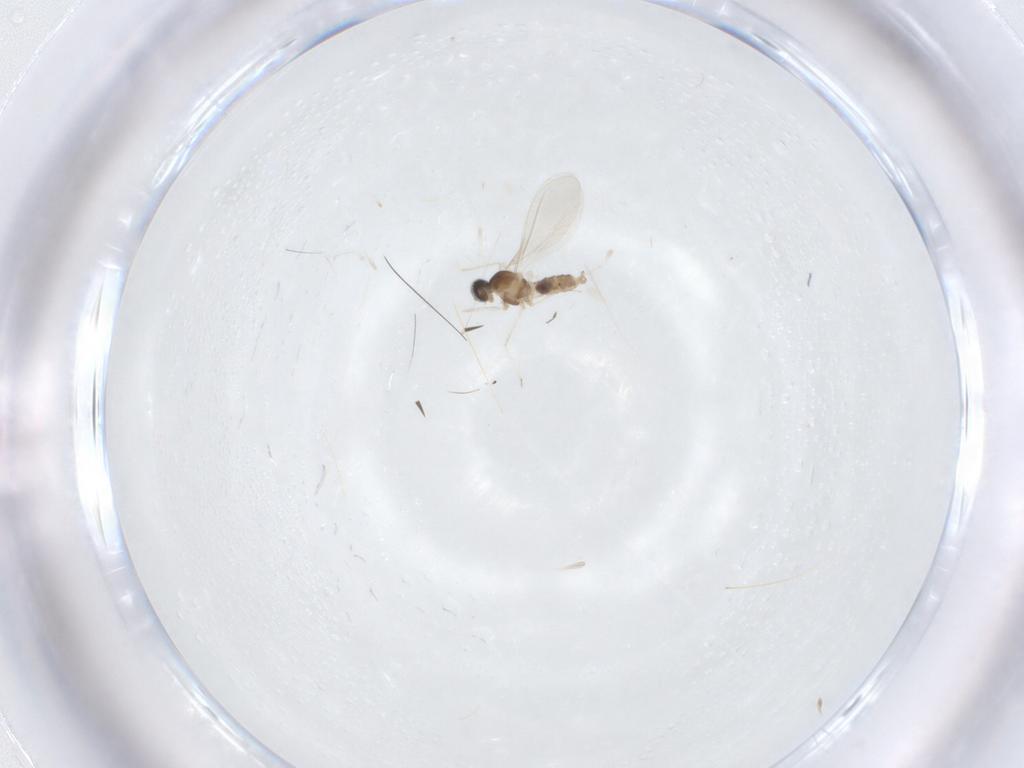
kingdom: Animalia
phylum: Arthropoda
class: Insecta
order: Diptera
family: Cecidomyiidae
